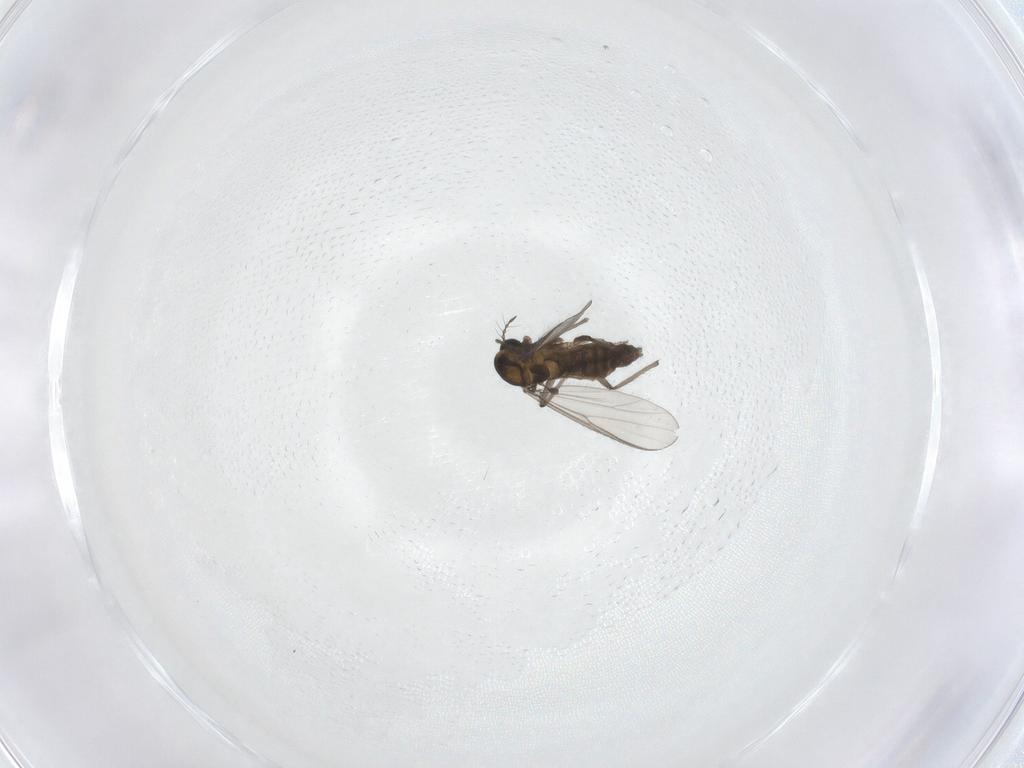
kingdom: Animalia
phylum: Arthropoda
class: Insecta
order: Diptera
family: Chironomidae
